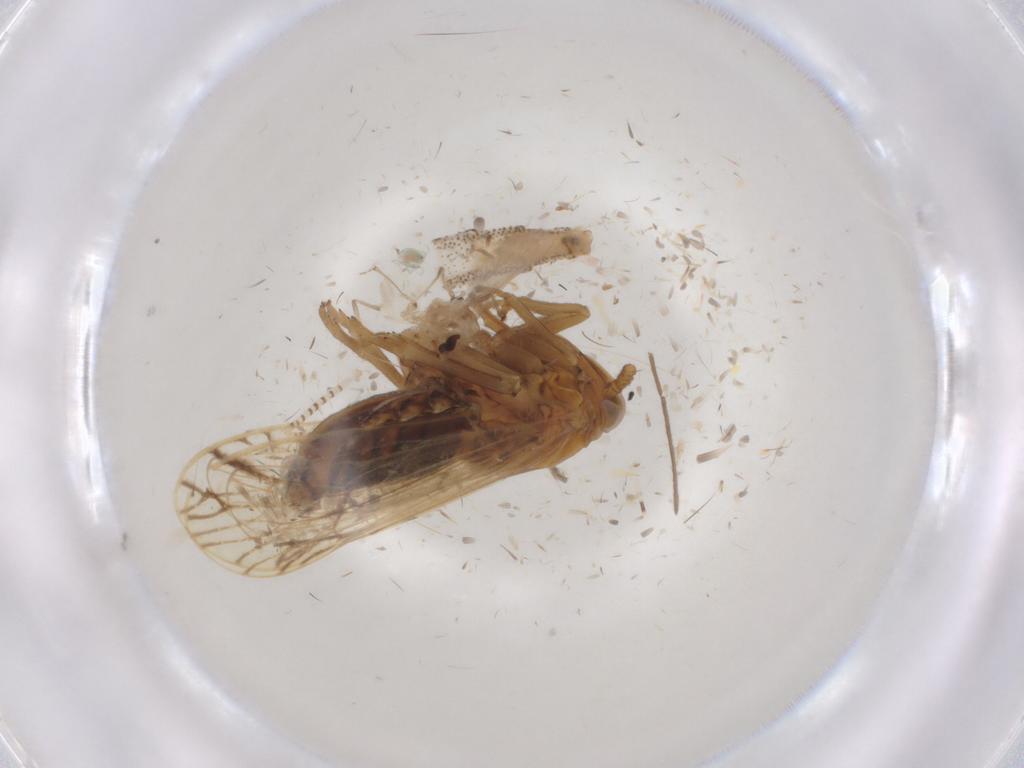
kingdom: Animalia
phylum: Arthropoda
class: Insecta
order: Hemiptera
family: Delphacidae
